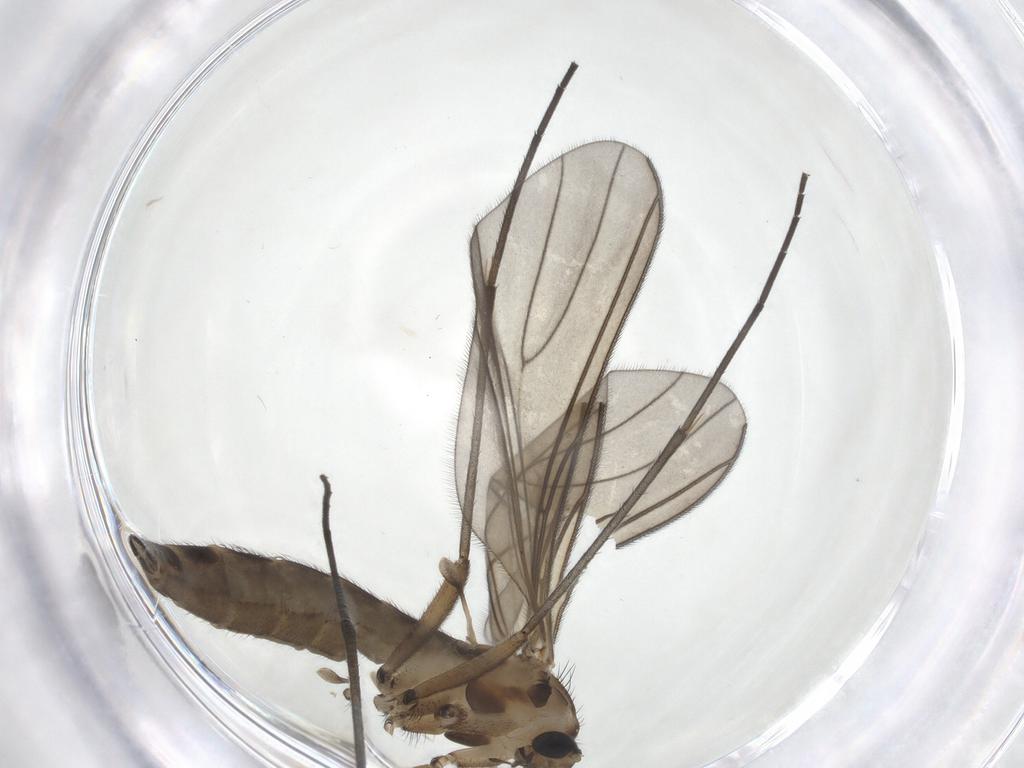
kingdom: Animalia
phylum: Arthropoda
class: Insecta
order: Diptera
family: Sciaridae
